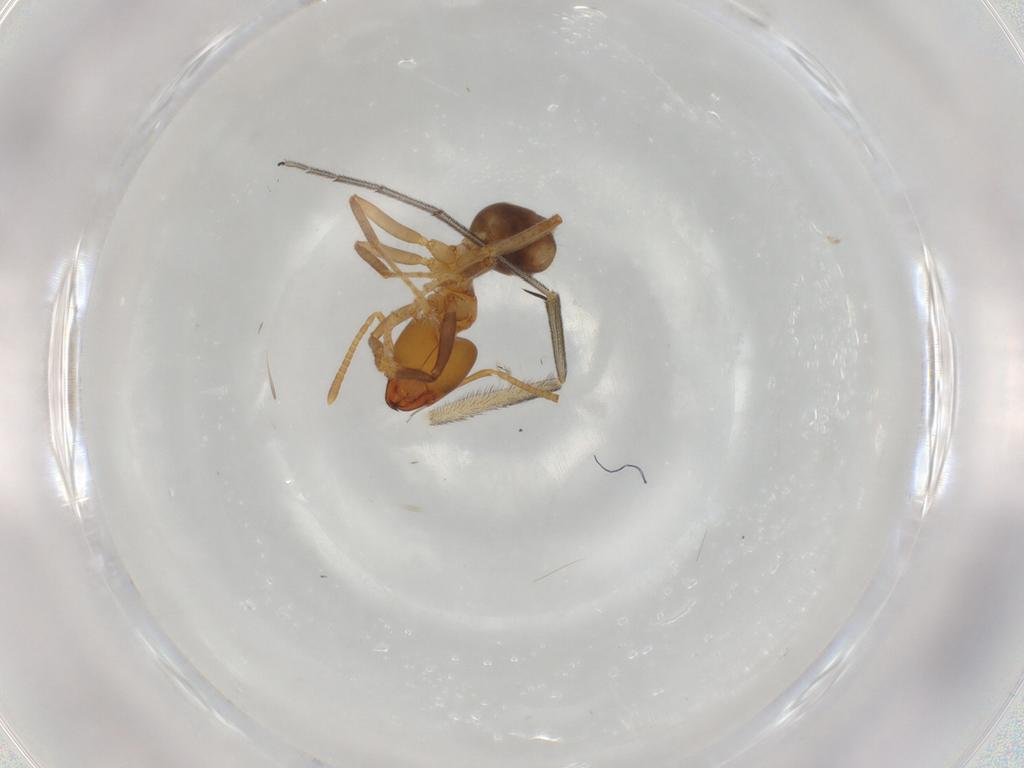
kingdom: Animalia
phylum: Arthropoda
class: Insecta
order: Hymenoptera
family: Formicidae
